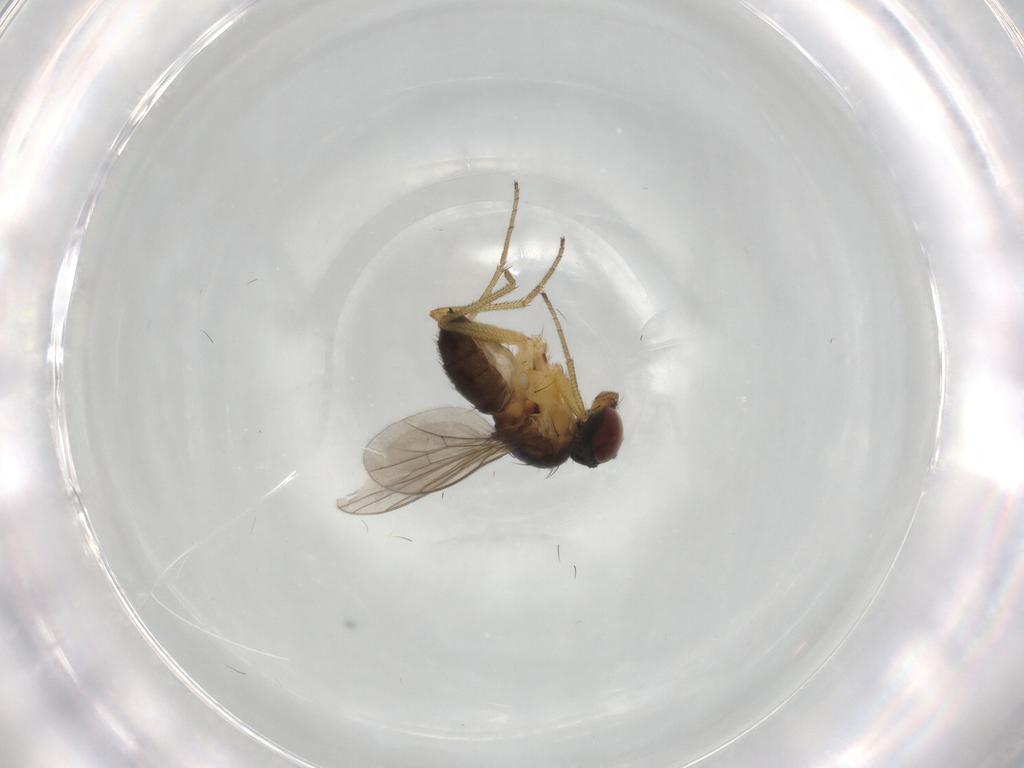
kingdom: Animalia
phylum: Arthropoda
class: Insecta
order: Diptera
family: Dolichopodidae
